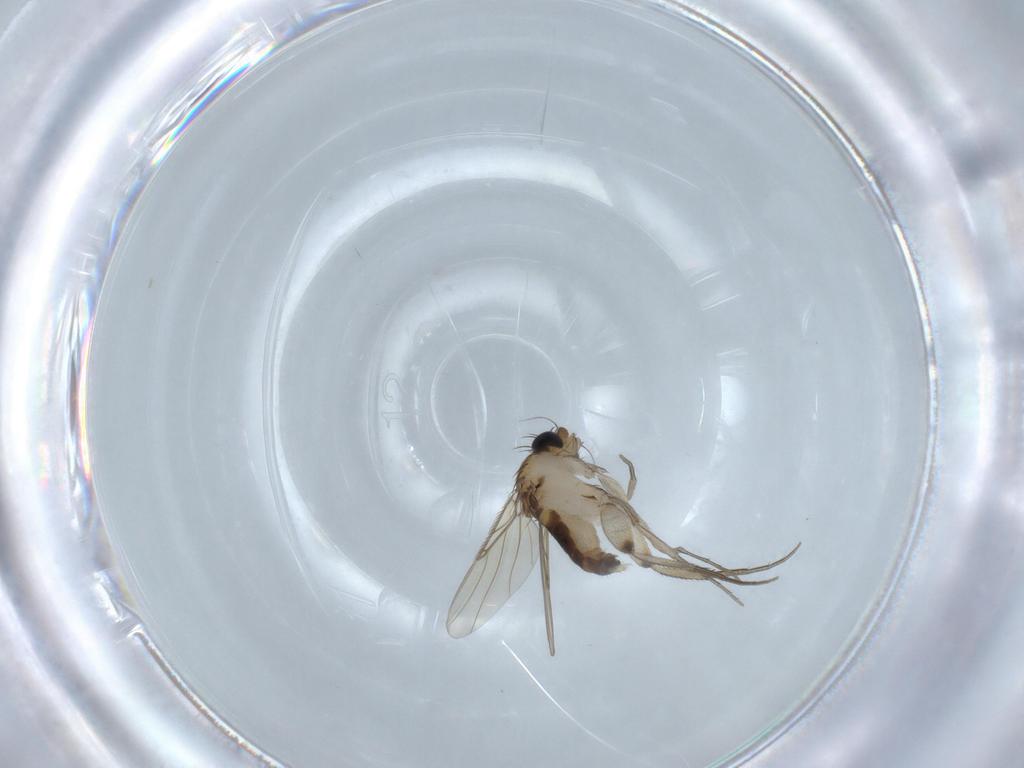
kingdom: Animalia
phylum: Arthropoda
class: Insecta
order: Diptera
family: Phoridae
